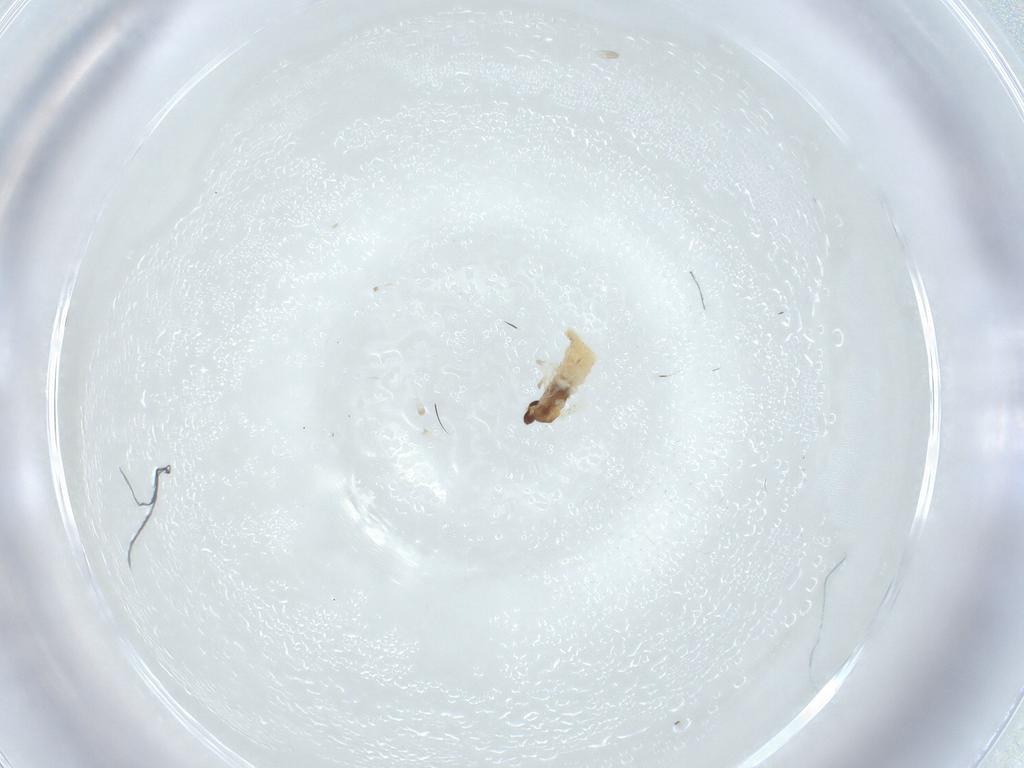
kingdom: Animalia
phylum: Arthropoda
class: Insecta
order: Diptera
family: Cecidomyiidae
